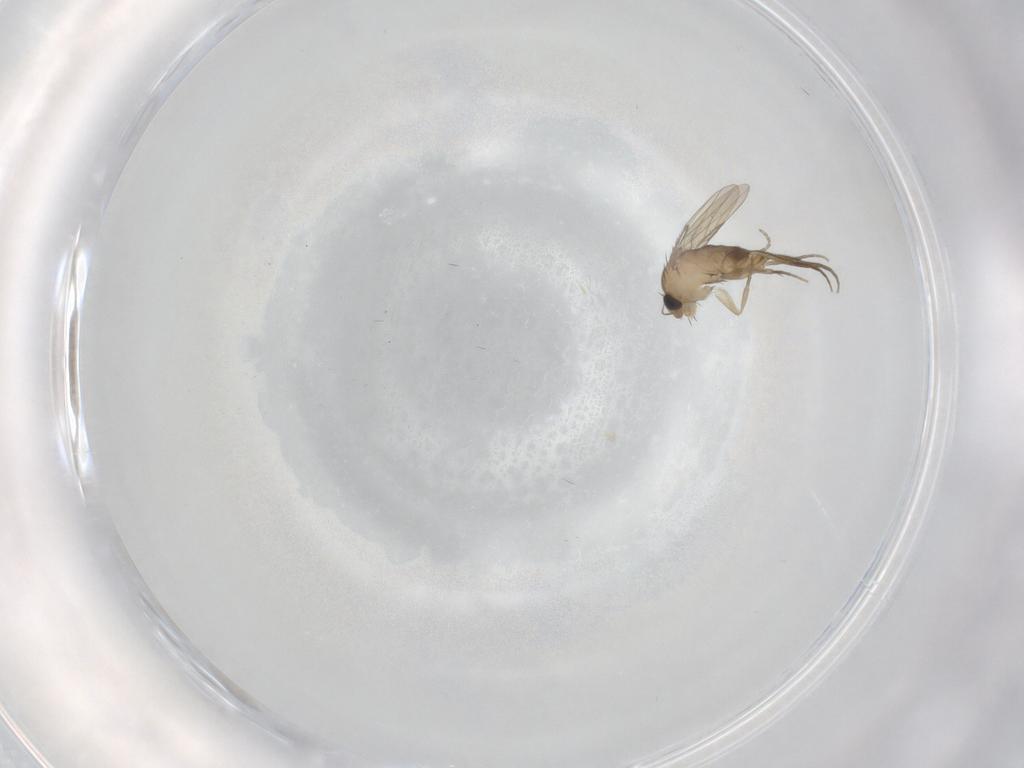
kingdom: Animalia
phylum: Arthropoda
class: Insecta
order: Diptera
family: Phoridae
